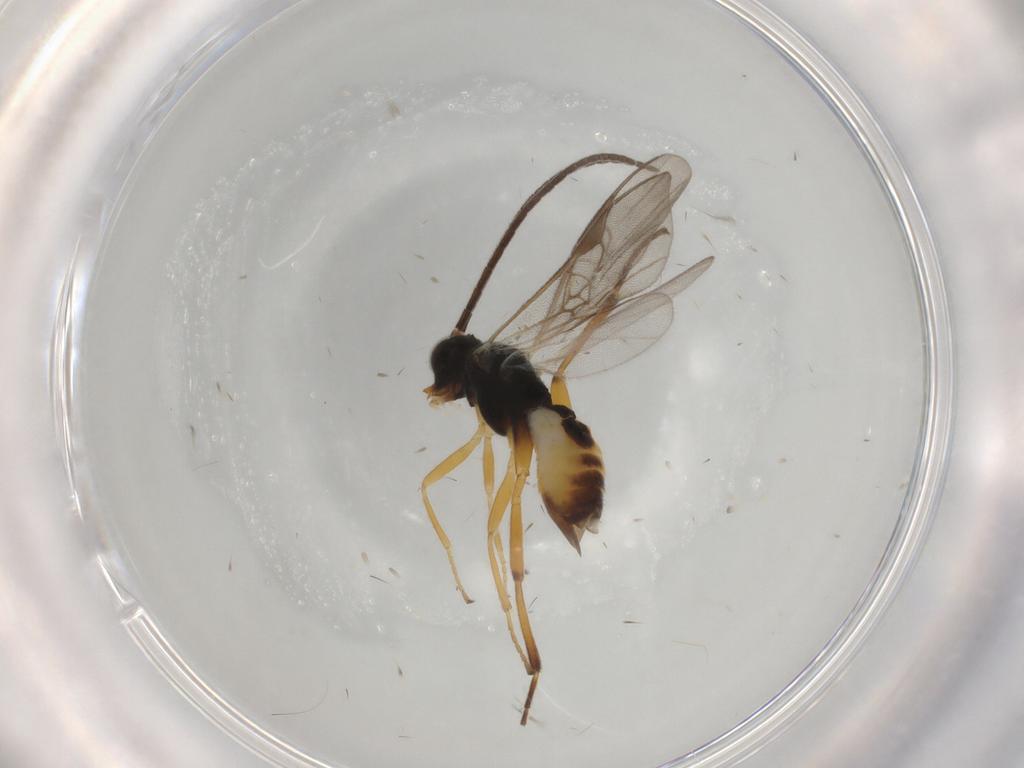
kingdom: Animalia
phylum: Arthropoda
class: Insecta
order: Hymenoptera
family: Braconidae
